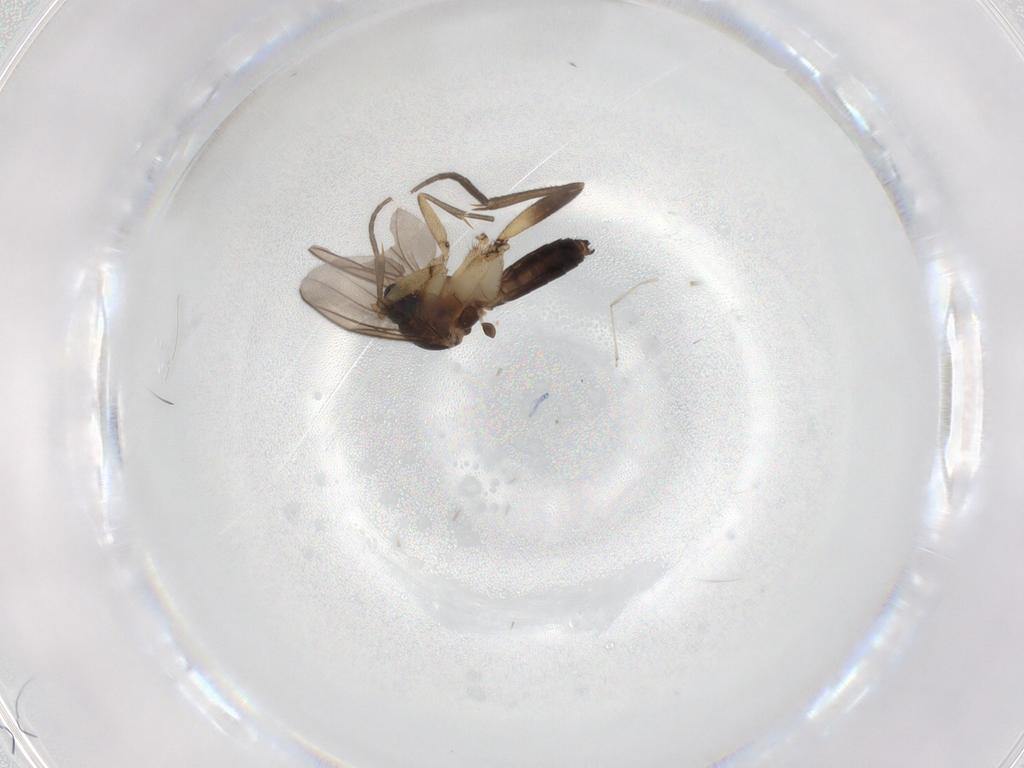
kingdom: Animalia
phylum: Arthropoda
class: Insecta
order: Diptera
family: Mycetophilidae
